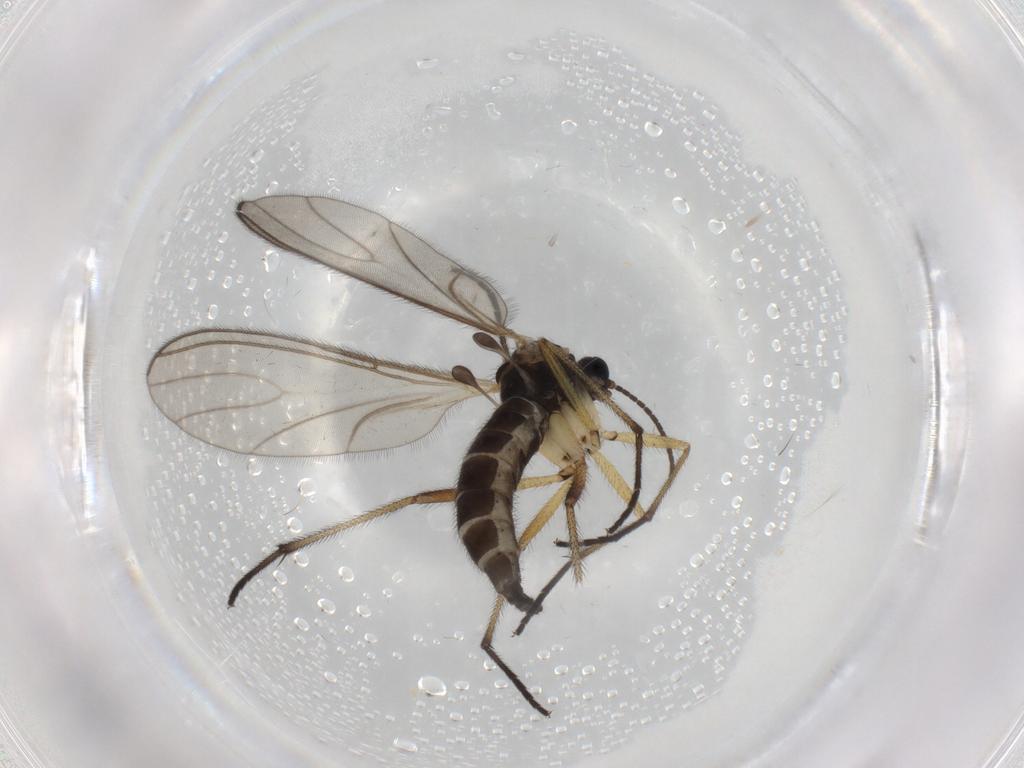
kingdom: Animalia
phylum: Arthropoda
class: Insecta
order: Diptera
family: Sciaridae
